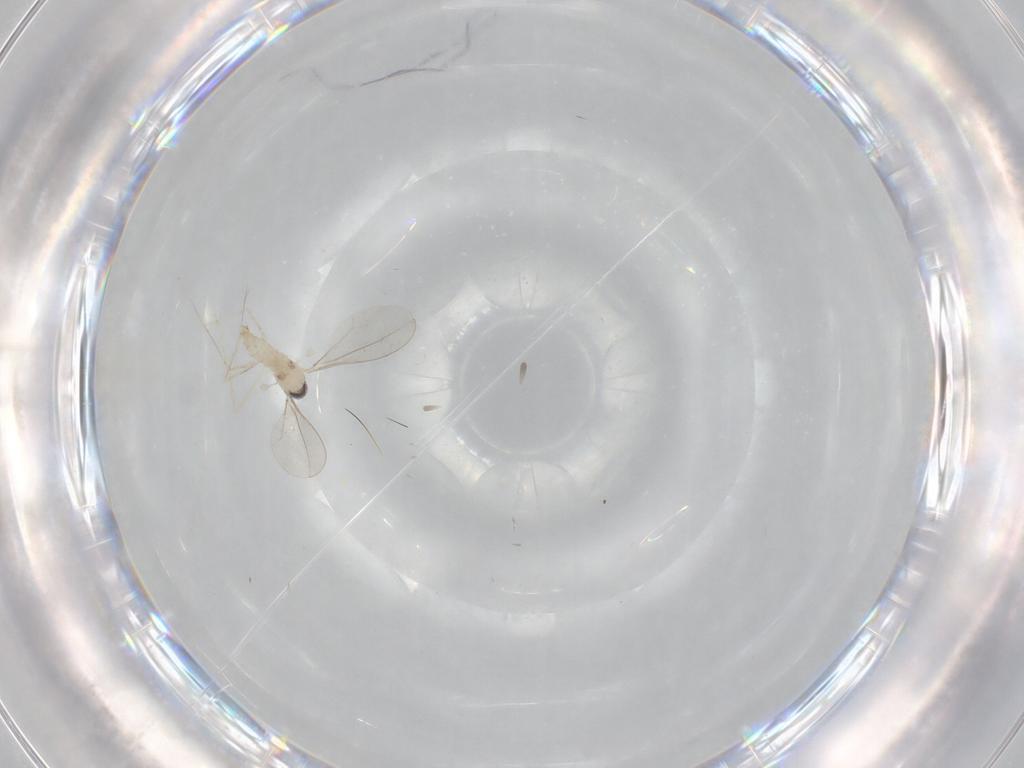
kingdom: Animalia
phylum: Arthropoda
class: Insecta
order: Diptera
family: Cecidomyiidae
